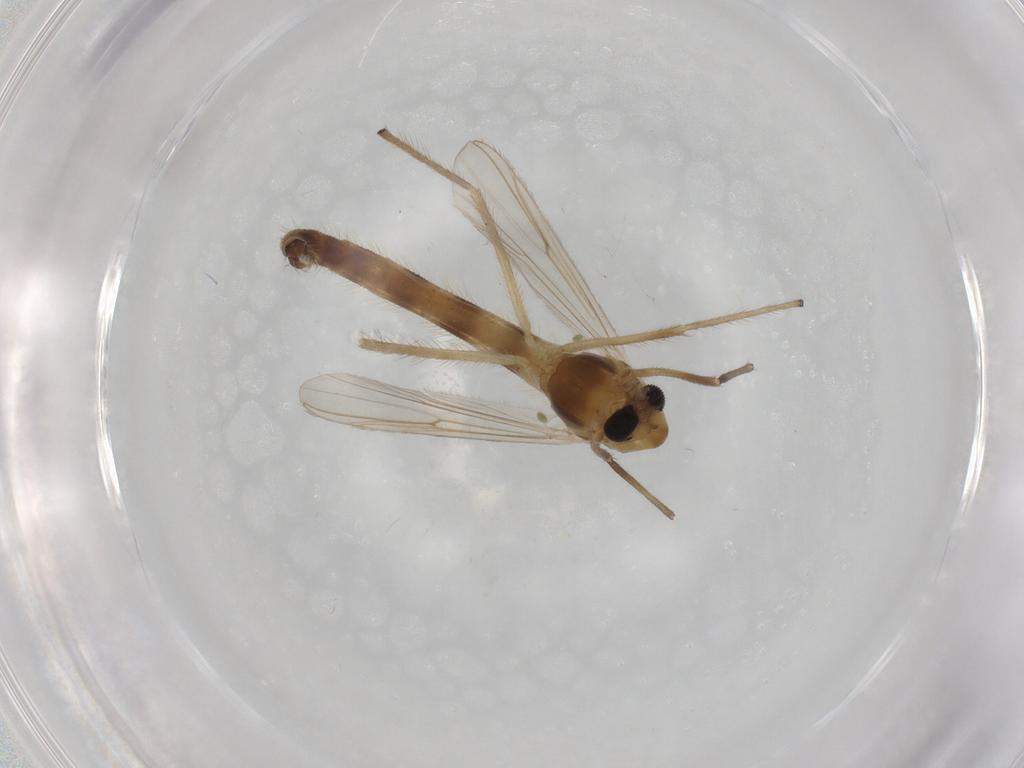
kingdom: Animalia
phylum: Arthropoda
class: Insecta
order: Diptera
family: Chironomidae
